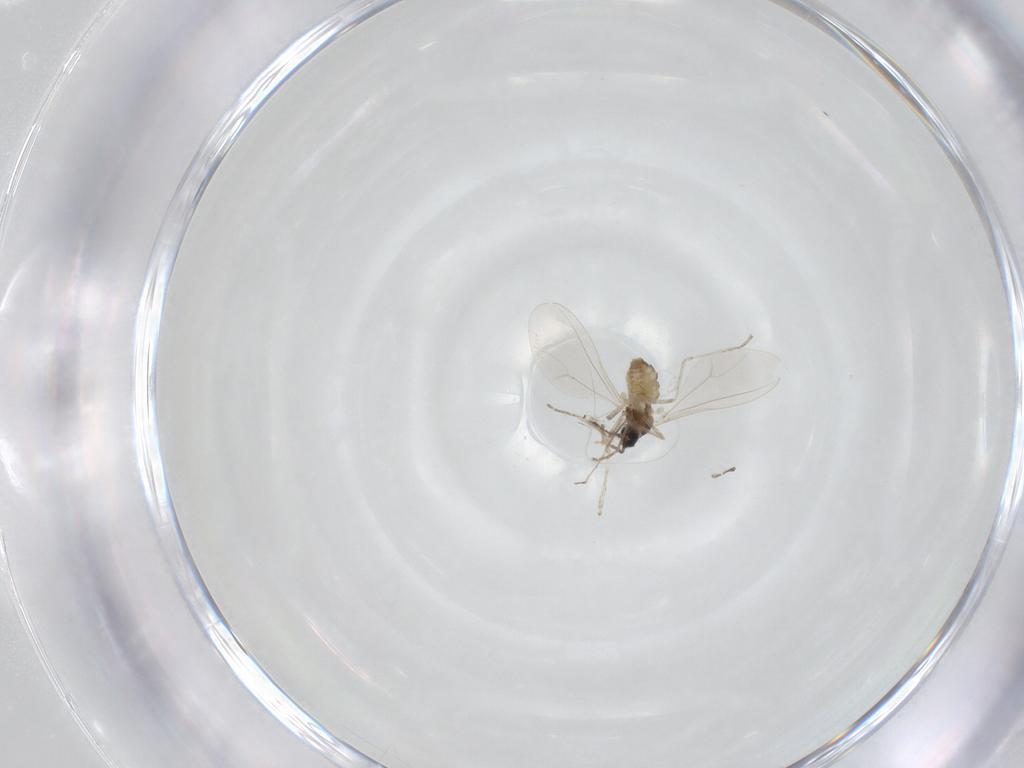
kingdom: Animalia
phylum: Arthropoda
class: Insecta
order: Diptera
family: Cecidomyiidae
